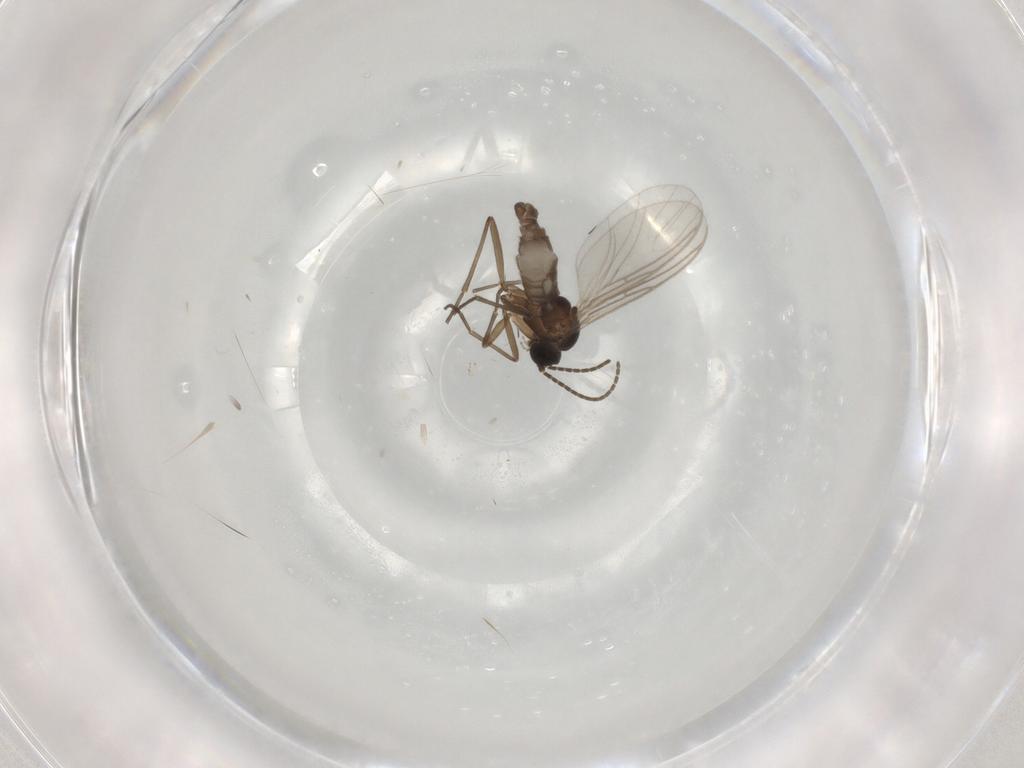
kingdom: Animalia
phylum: Arthropoda
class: Insecta
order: Diptera
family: Sciaridae
